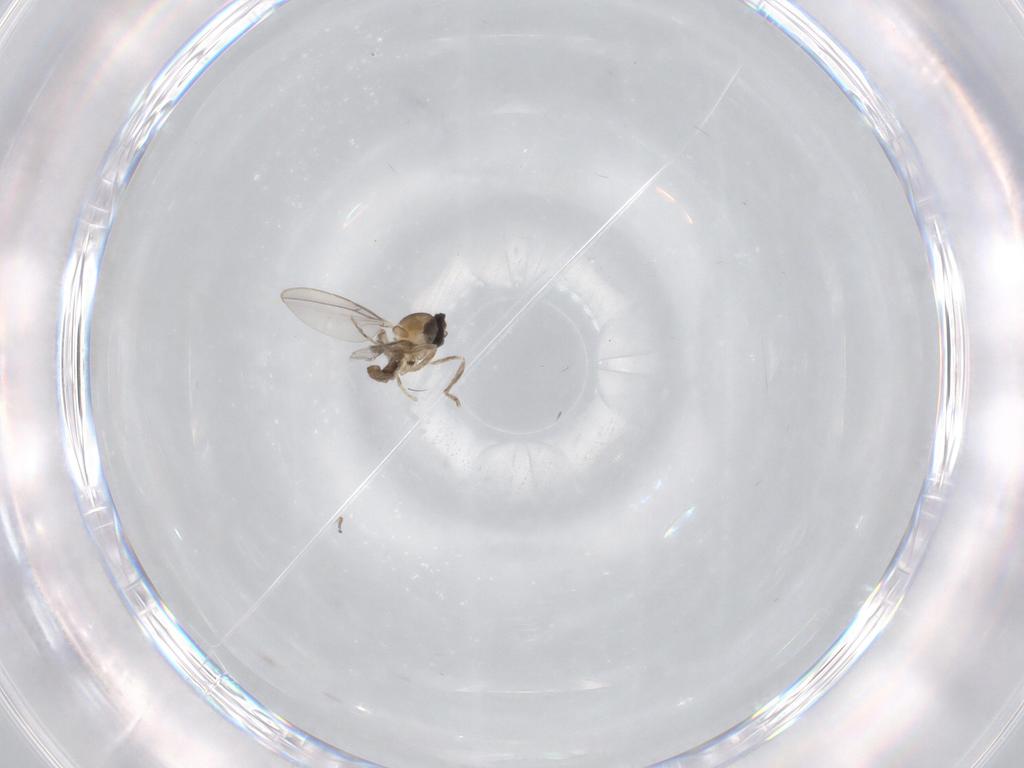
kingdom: Animalia
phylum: Arthropoda
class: Insecta
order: Diptera
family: Cecidomyiidae
